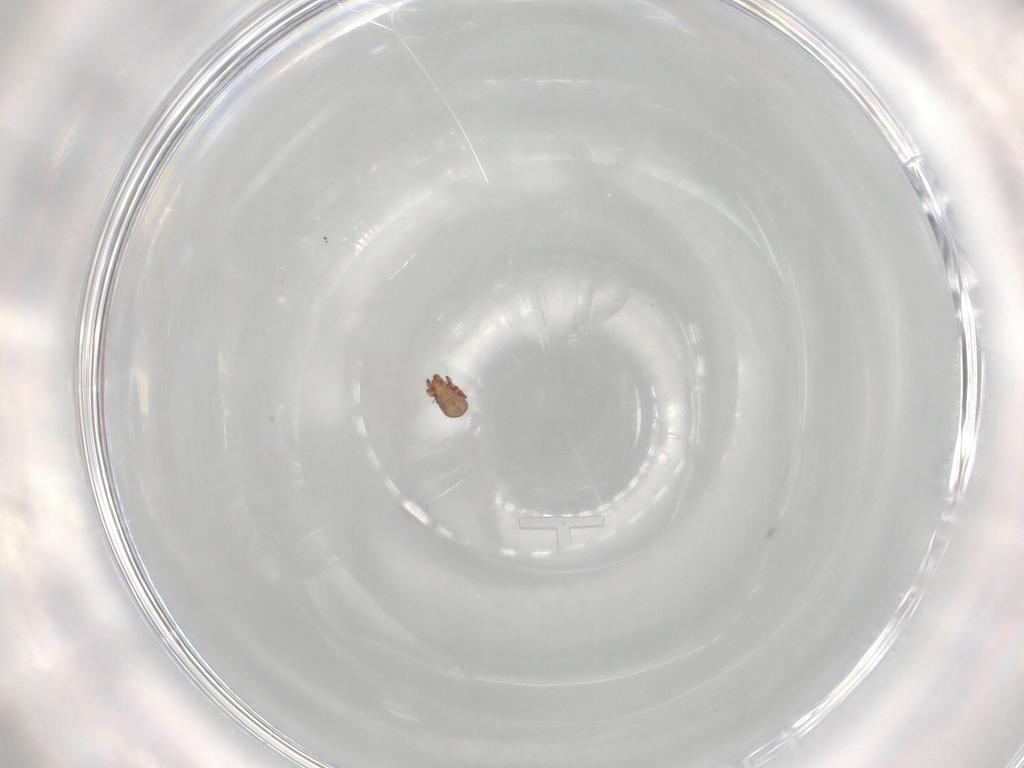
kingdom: Animalia
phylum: Arthropoda
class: Arachnida
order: Sarcoptiformes
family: Eremaeidae
